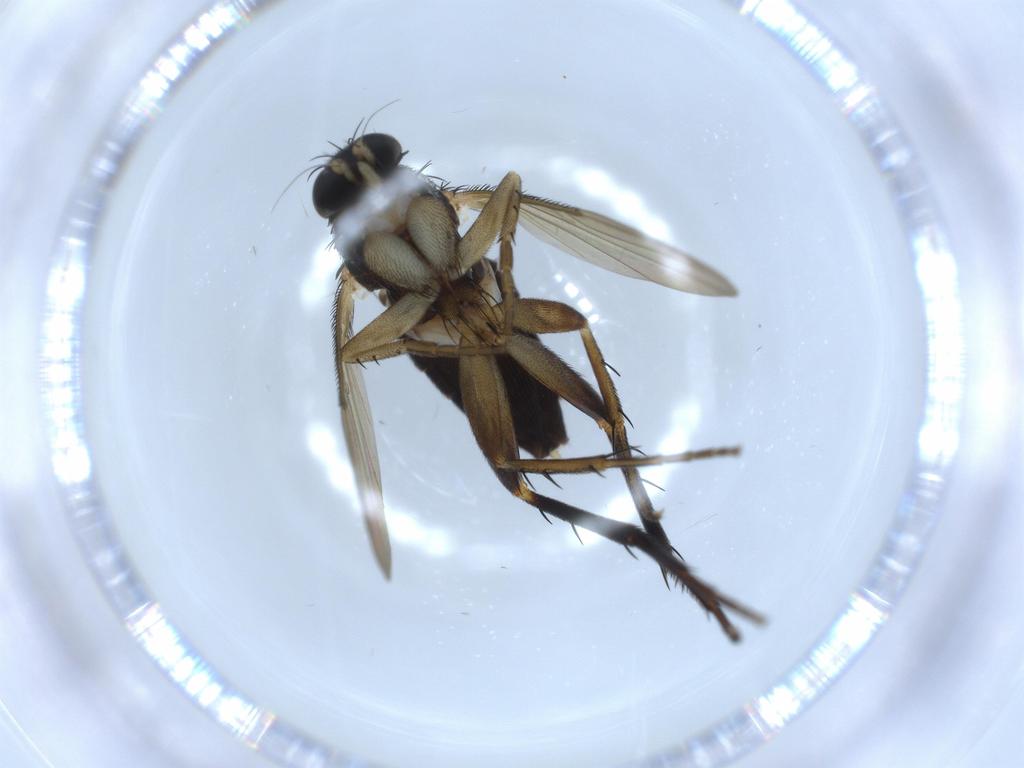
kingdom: Animalia
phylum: Arthropoda
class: Insecta
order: Diptera
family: Phoridae
